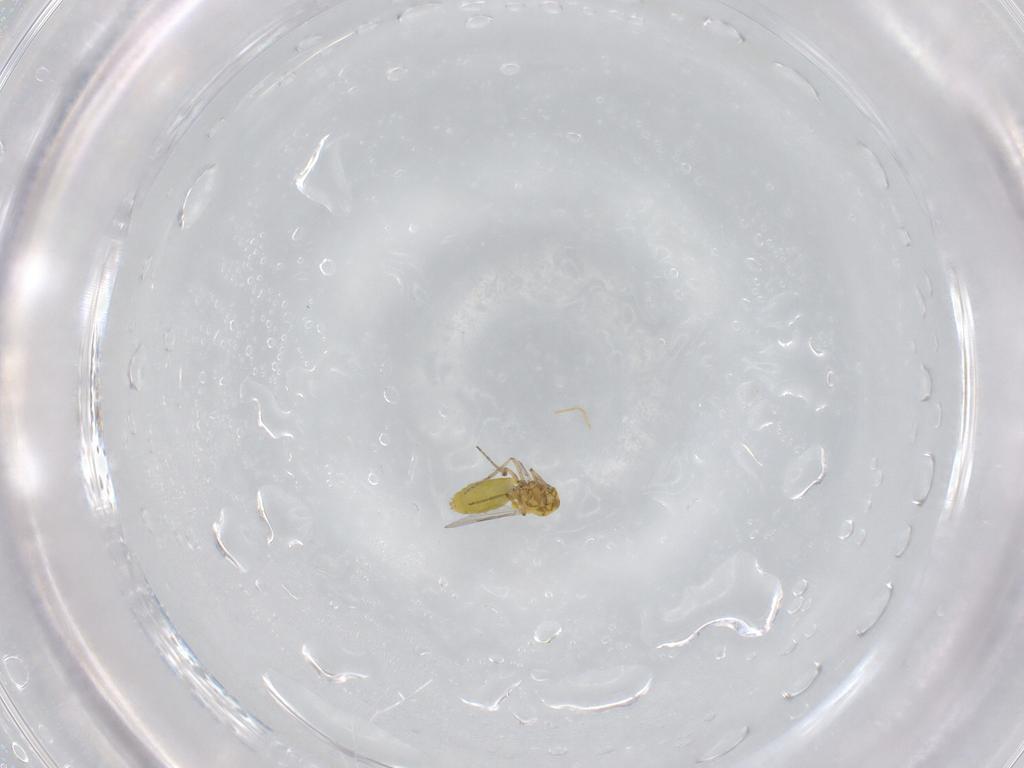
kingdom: Animalia
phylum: Arthropoda
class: Insecta
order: Diptera
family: Ceratopogonidae
